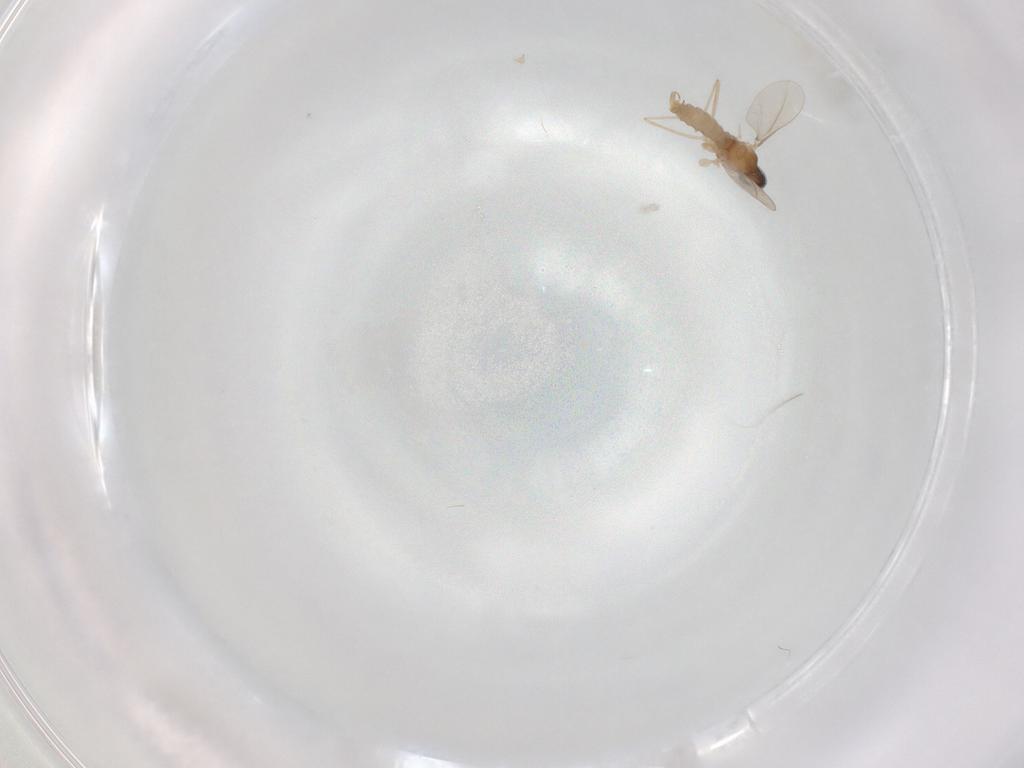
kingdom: Animalia
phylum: Arthropoda
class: Insecta
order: Diptera
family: Cecidomyiidae
